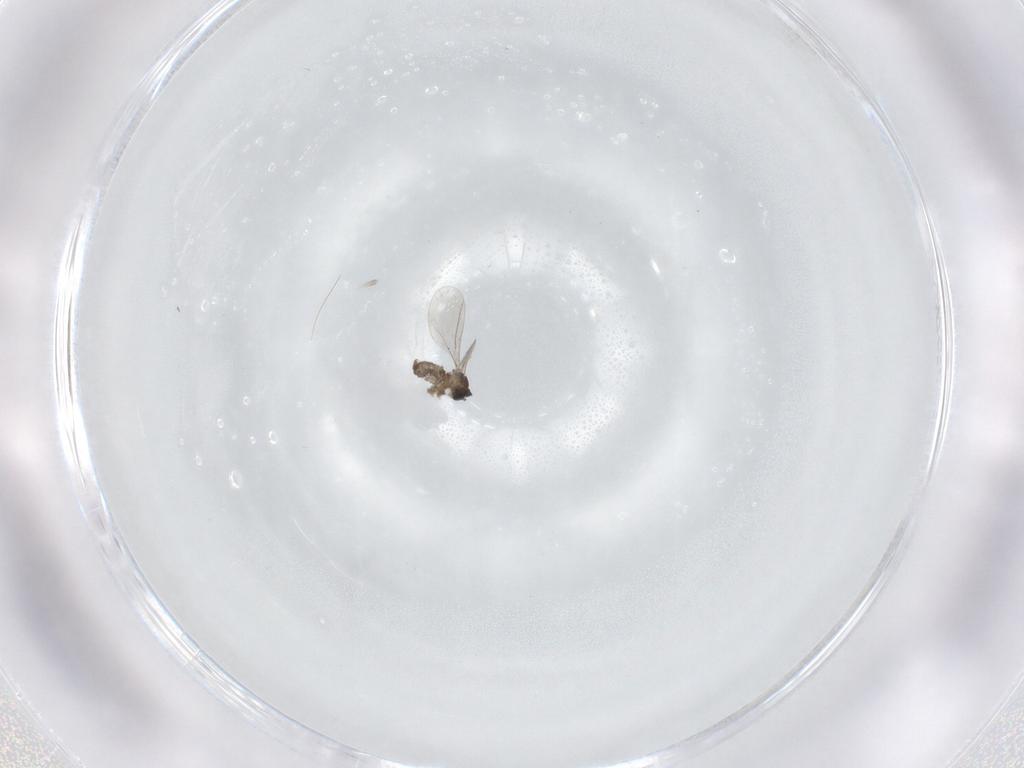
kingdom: Animalia
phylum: Arthropoda
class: Insecta
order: Diptera
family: Sciaridae
